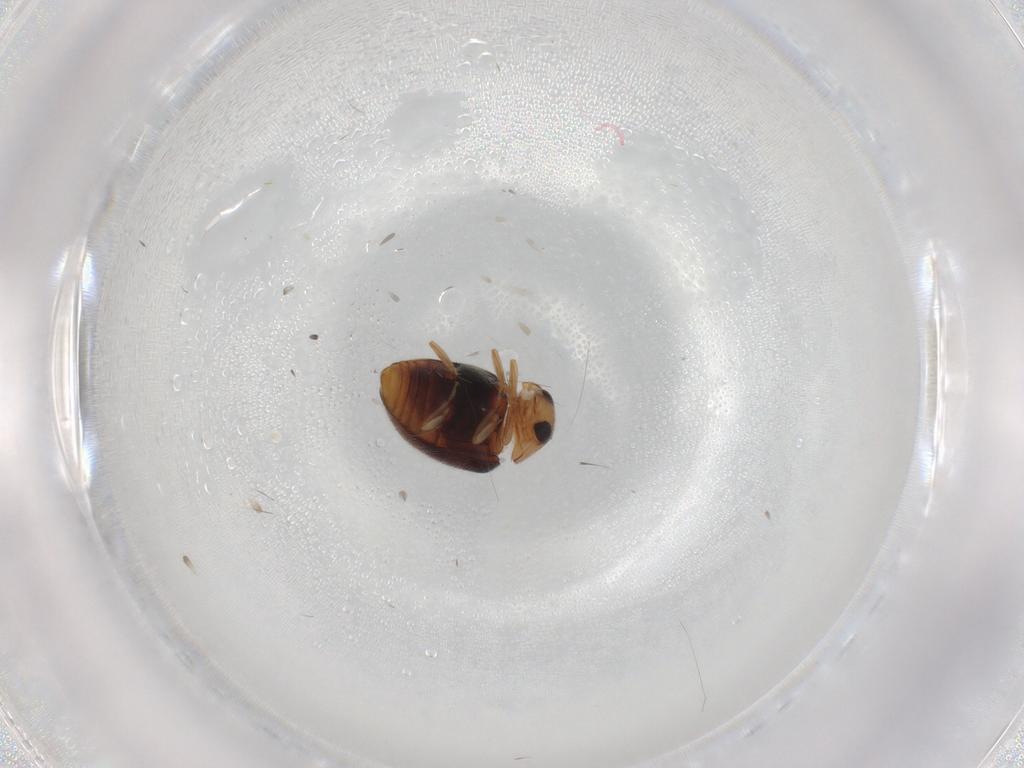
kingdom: Animalia
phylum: Arthropoda
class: Insecta
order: Coleoptera
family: Coccinellidae
